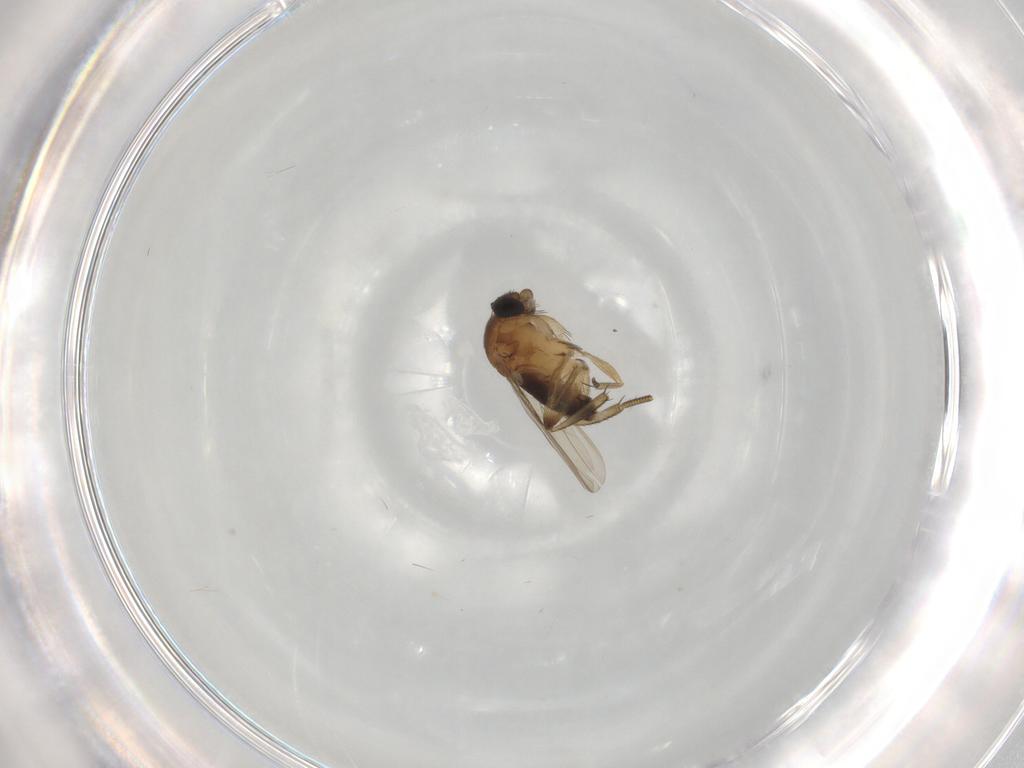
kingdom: Animalia
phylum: Arthropoda
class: Insecta
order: Diptera
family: Phoridae
